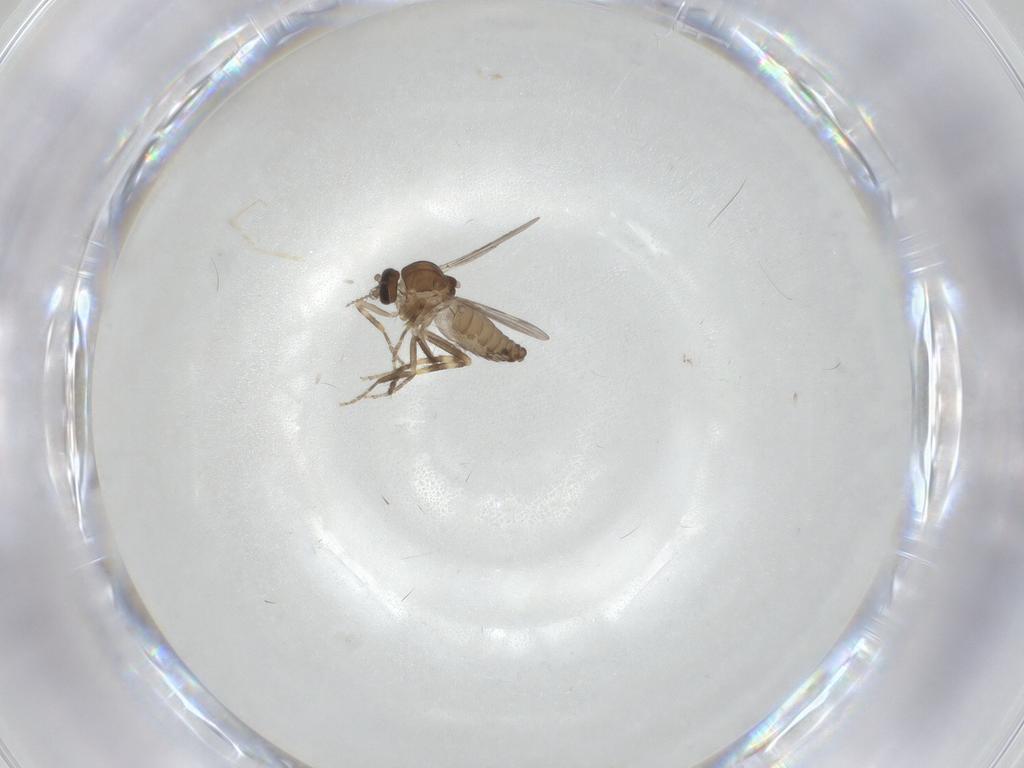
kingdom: Animalia
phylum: Arthropoda
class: Insecta
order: Diptera
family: Ceratopogonidae
